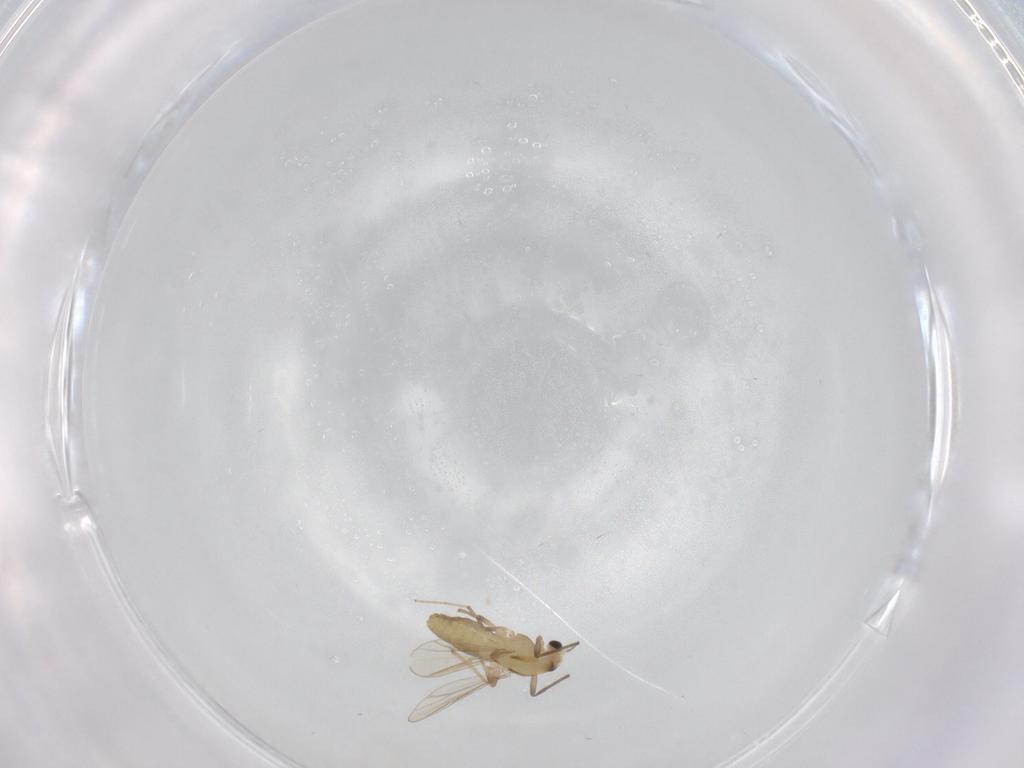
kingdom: Animalia
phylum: Arthropoda
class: Insecta
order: Diptera
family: Chironomidae
